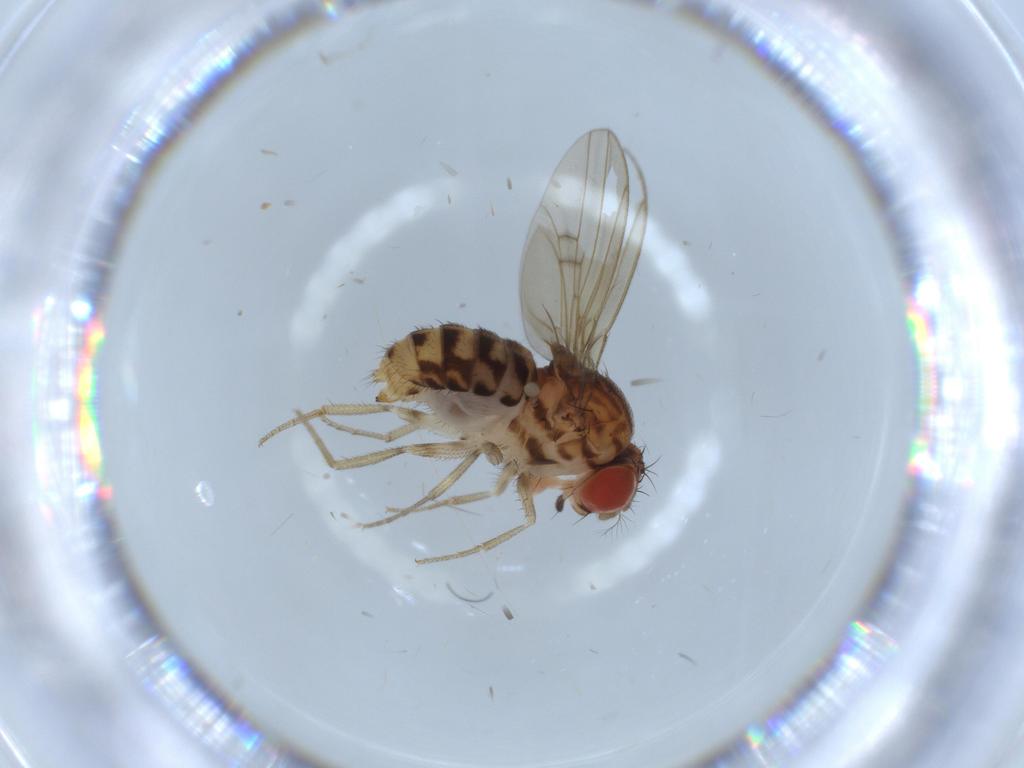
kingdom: Animalia
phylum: Arthropoda
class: Insecta
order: Diptera
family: Drosophilidae
